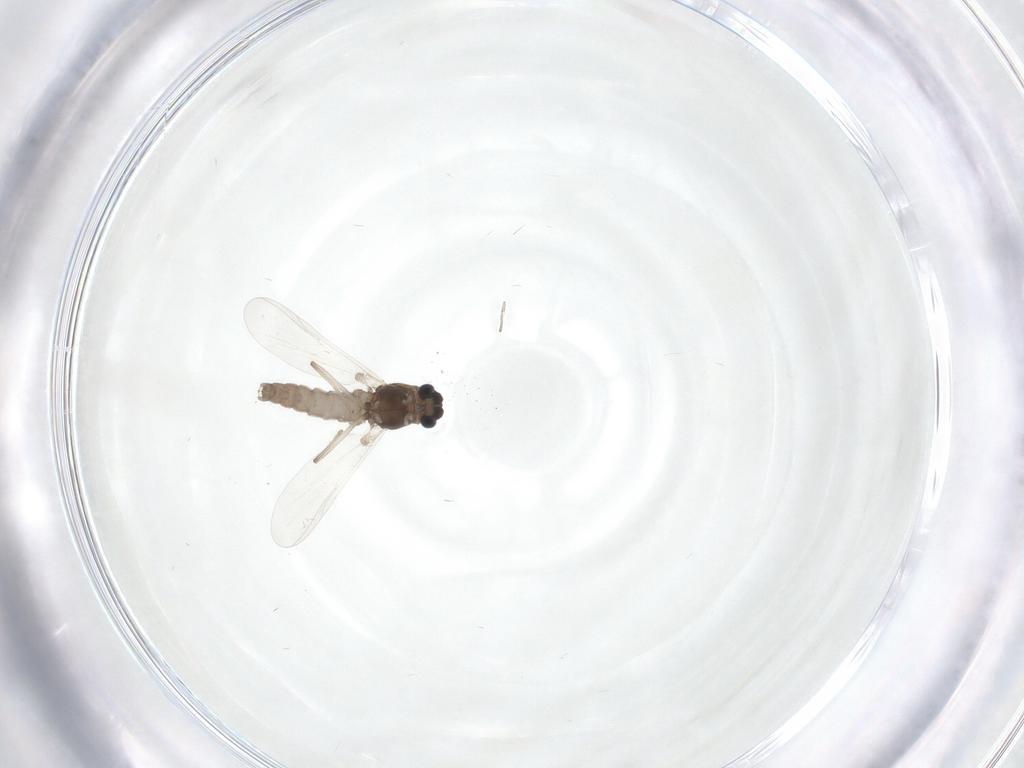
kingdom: Animalia
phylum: Arthropoda
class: Insecta
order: Diptera
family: Chironomidae
